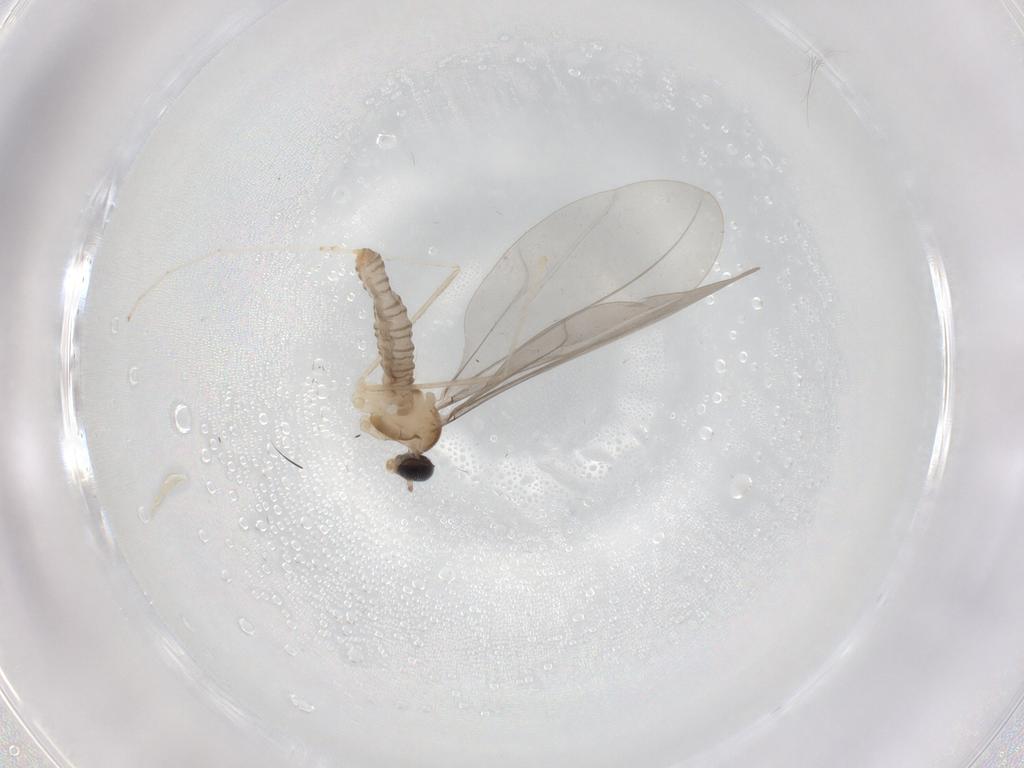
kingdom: Animalia
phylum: Arthropoda
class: Insecta
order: Diptera
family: Cecidomyiidae
